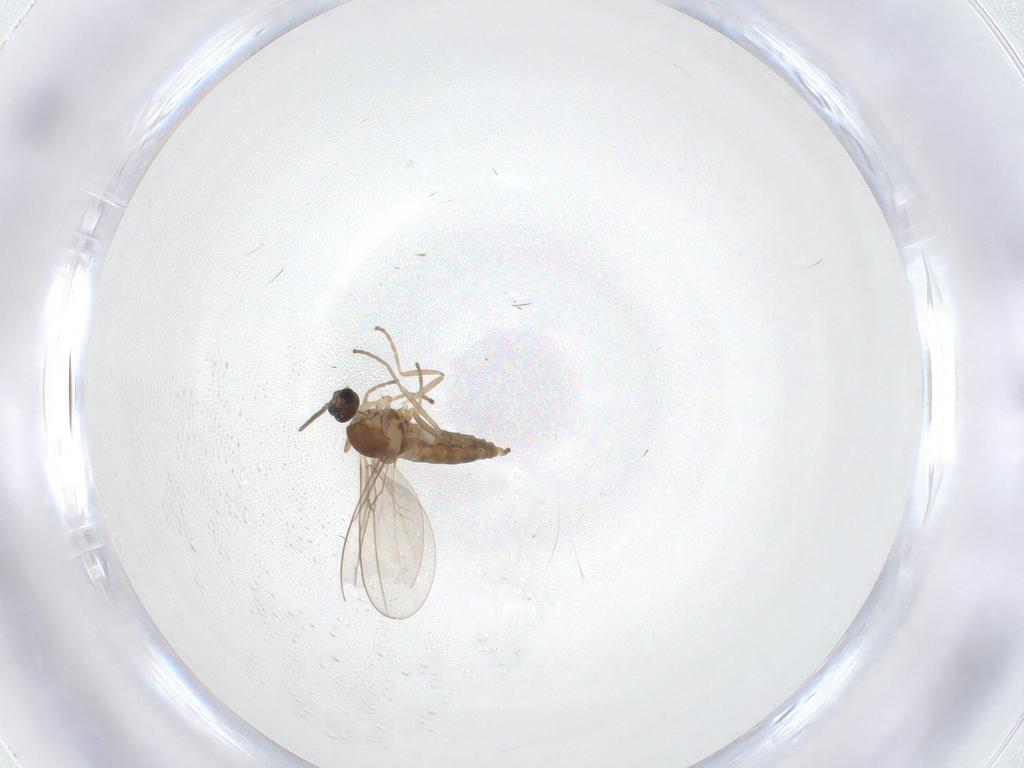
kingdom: Animalia
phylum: Arthropoda
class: Insecta
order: Diptera
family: Cecidomyiidae
